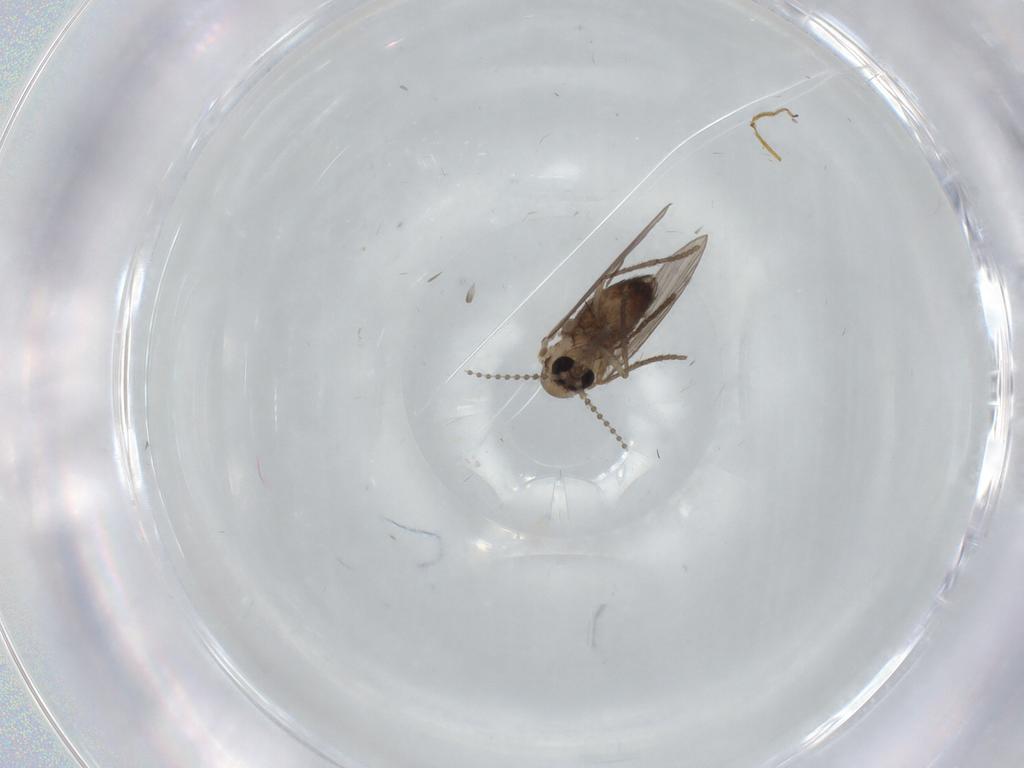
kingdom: Animalia
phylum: Arthropoda
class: Insecta
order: Diptera
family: Psychodidae
